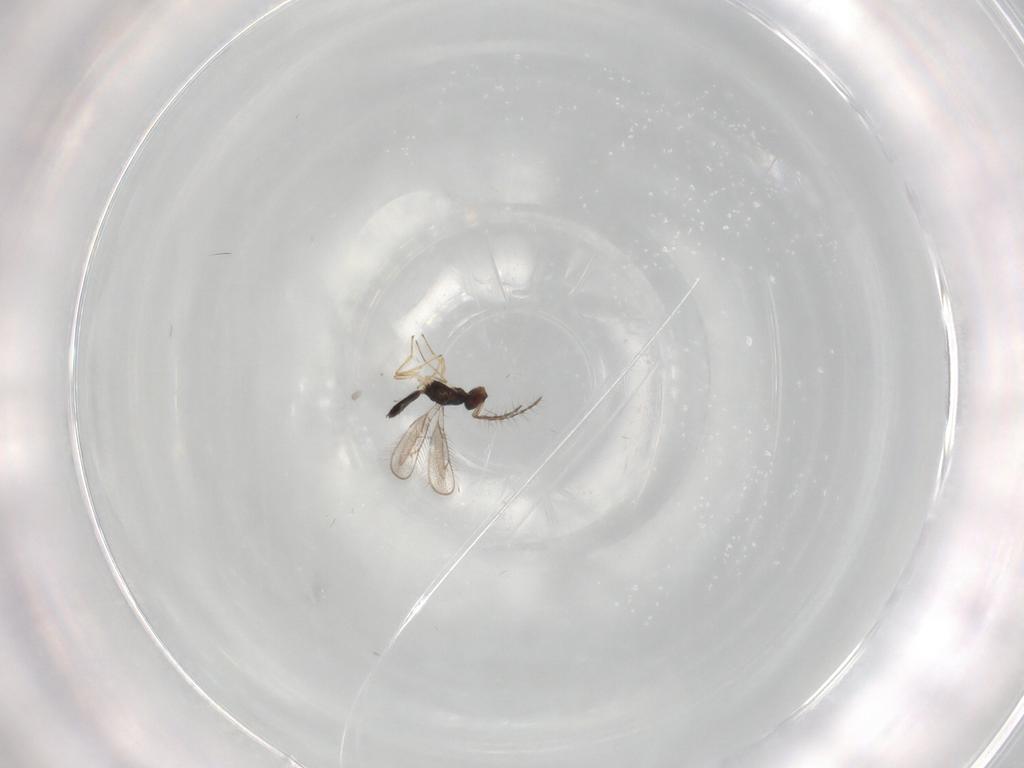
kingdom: Animalia
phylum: Arthropoda
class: Insecta
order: Hymenoptera
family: Pteromalidae
